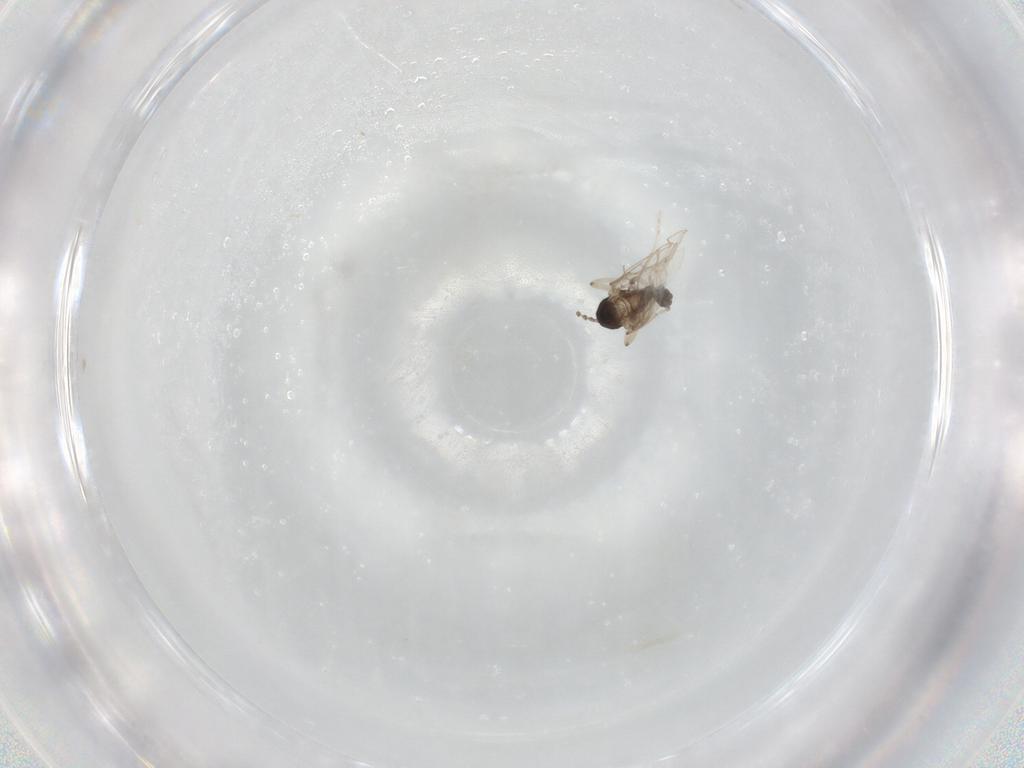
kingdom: Animalia
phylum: Arthropoda
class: Insecta
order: Diptera
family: Cecidomyiidae
